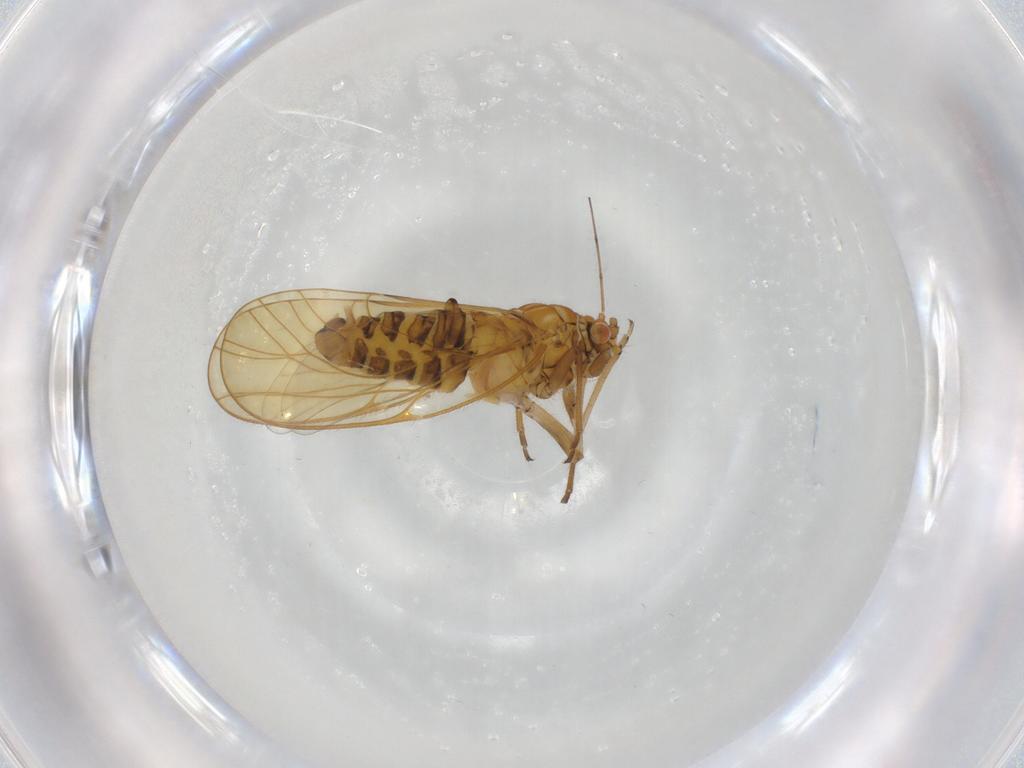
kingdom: Animalia
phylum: Arthropoda
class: Insecta
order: Hemiptera
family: Psyllidae
